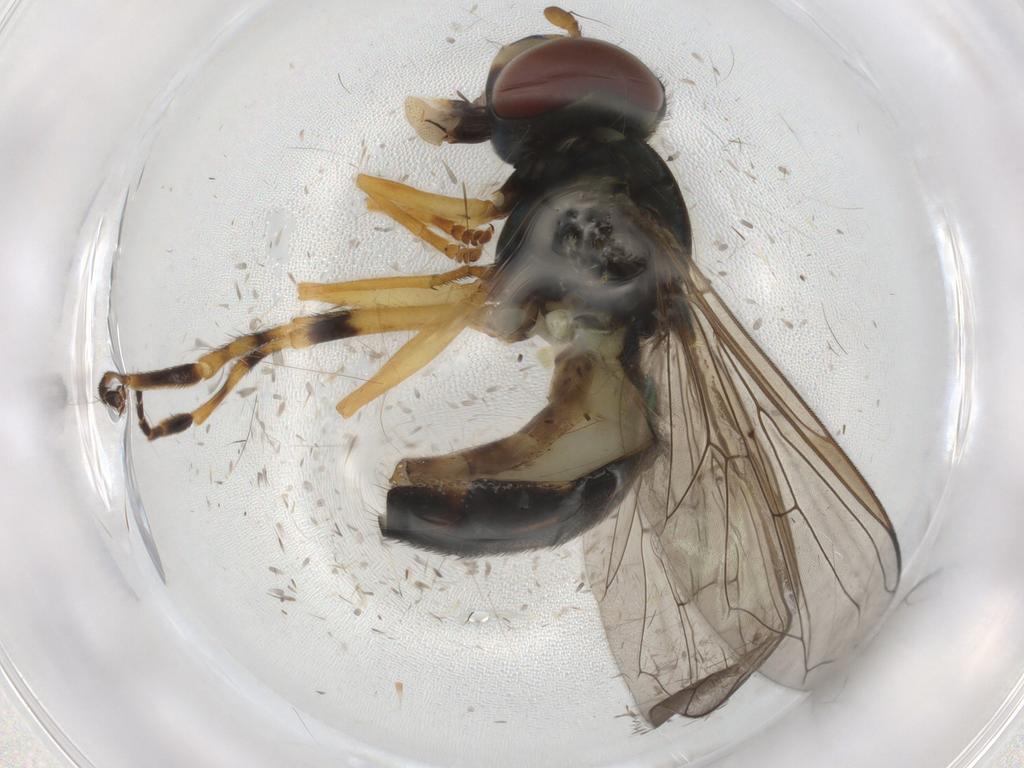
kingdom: Animalia
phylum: Arthropoda
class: Insecta
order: Diptera
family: Syrphidae
